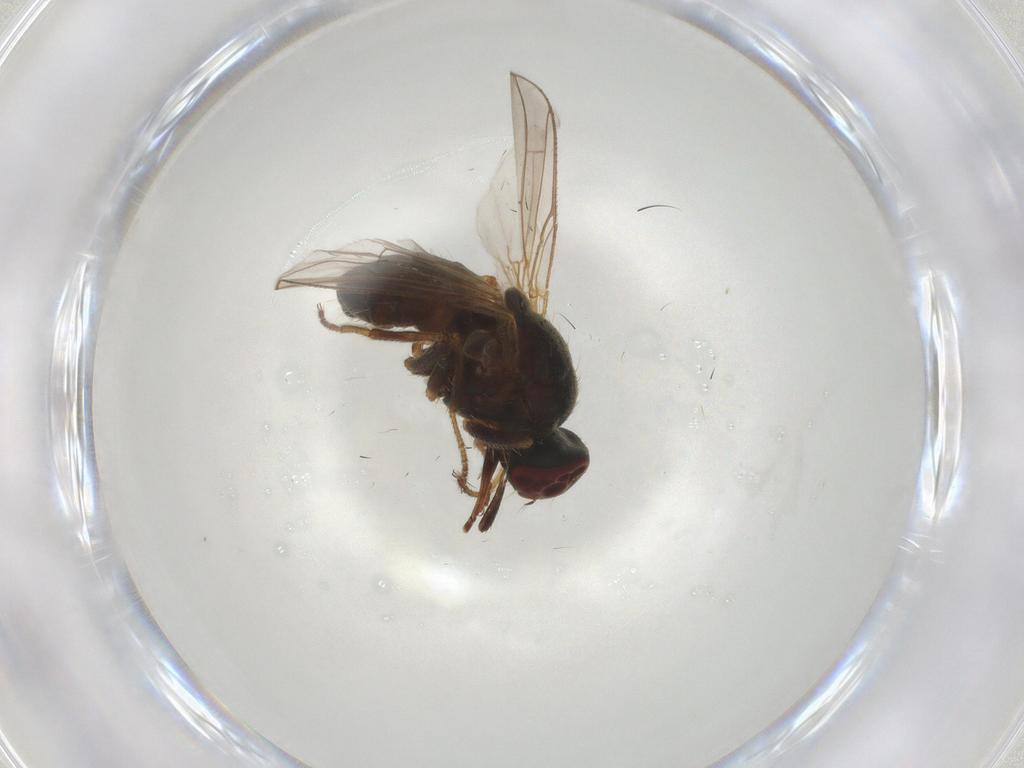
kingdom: Animalia
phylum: Arthropoda
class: Insecta
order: Diptera
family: Muscidae
